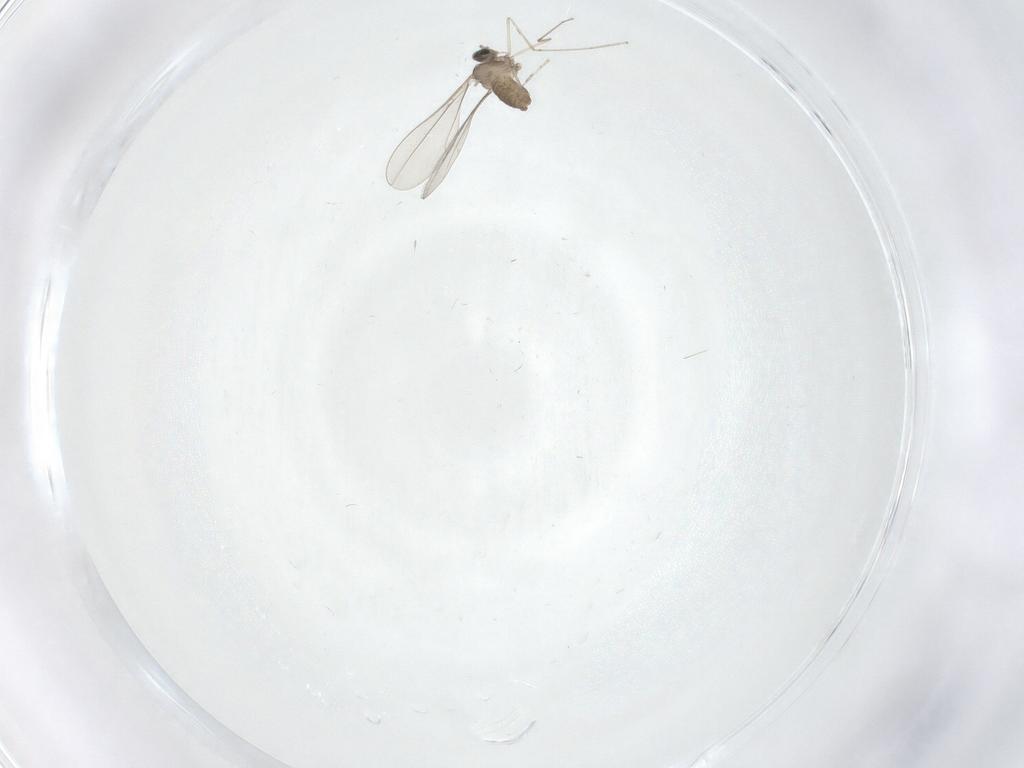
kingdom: Animalia
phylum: Arthropoda
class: Insecta
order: Diptera
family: Cecidomyiidae
